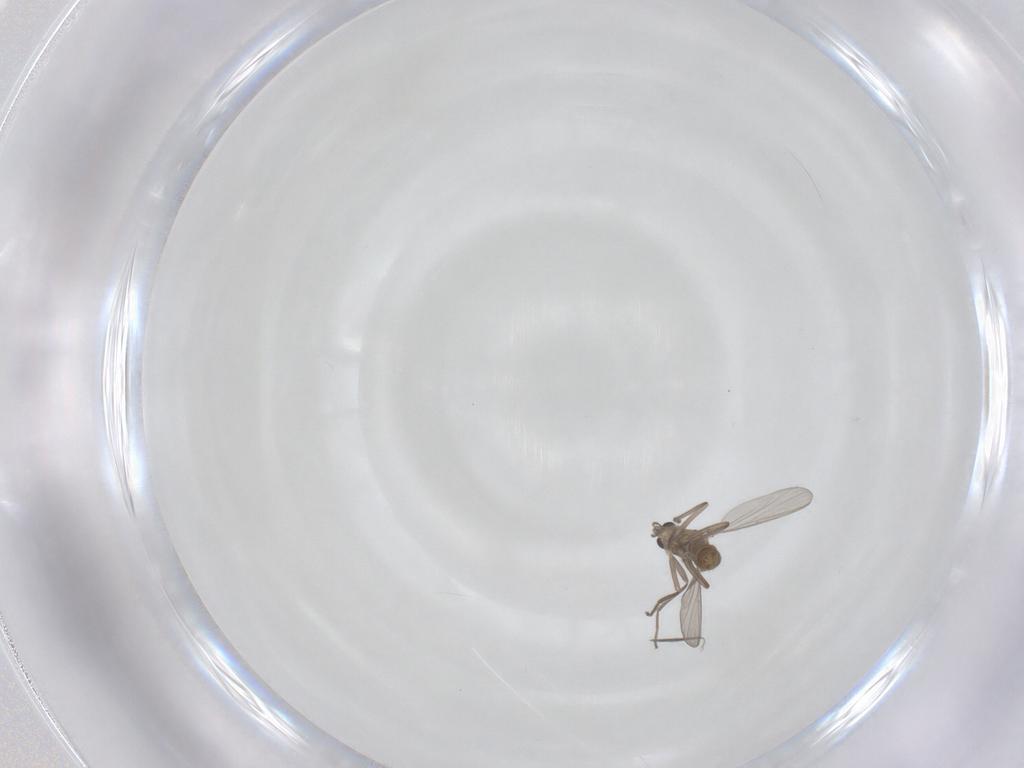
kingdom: Animalia
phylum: Arthropoda
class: Insecta
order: Diptera
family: Chironomidae
